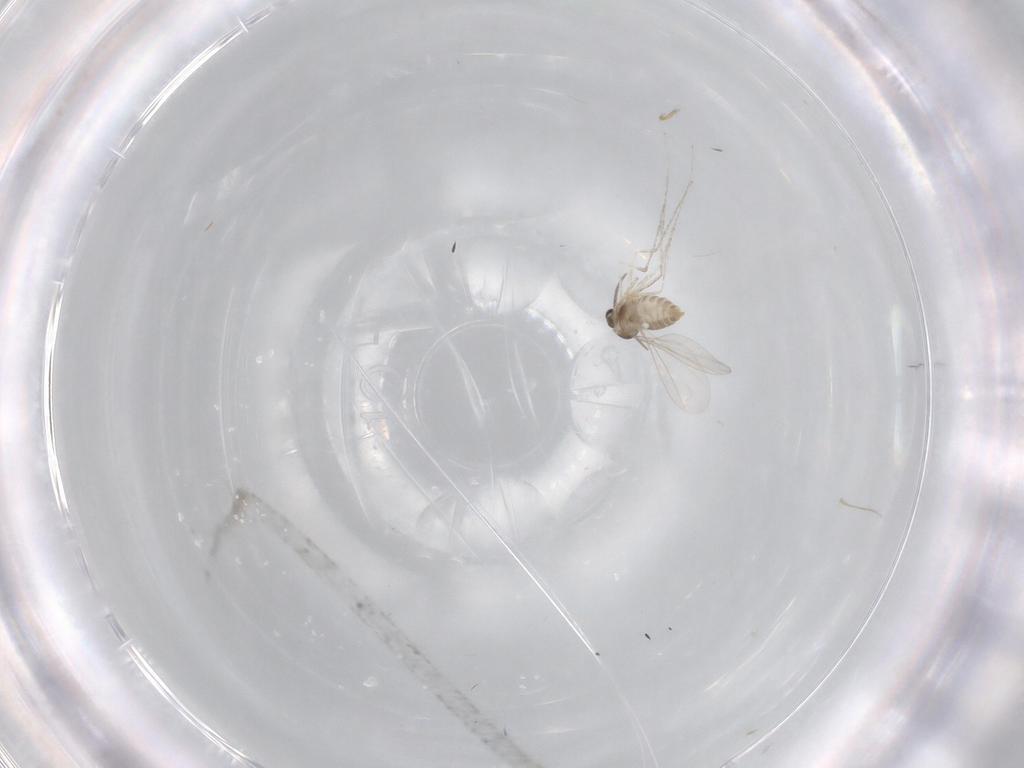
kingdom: Animalia
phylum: Arthropoda
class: Insecta
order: Diptera
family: Cecidomyiidae
